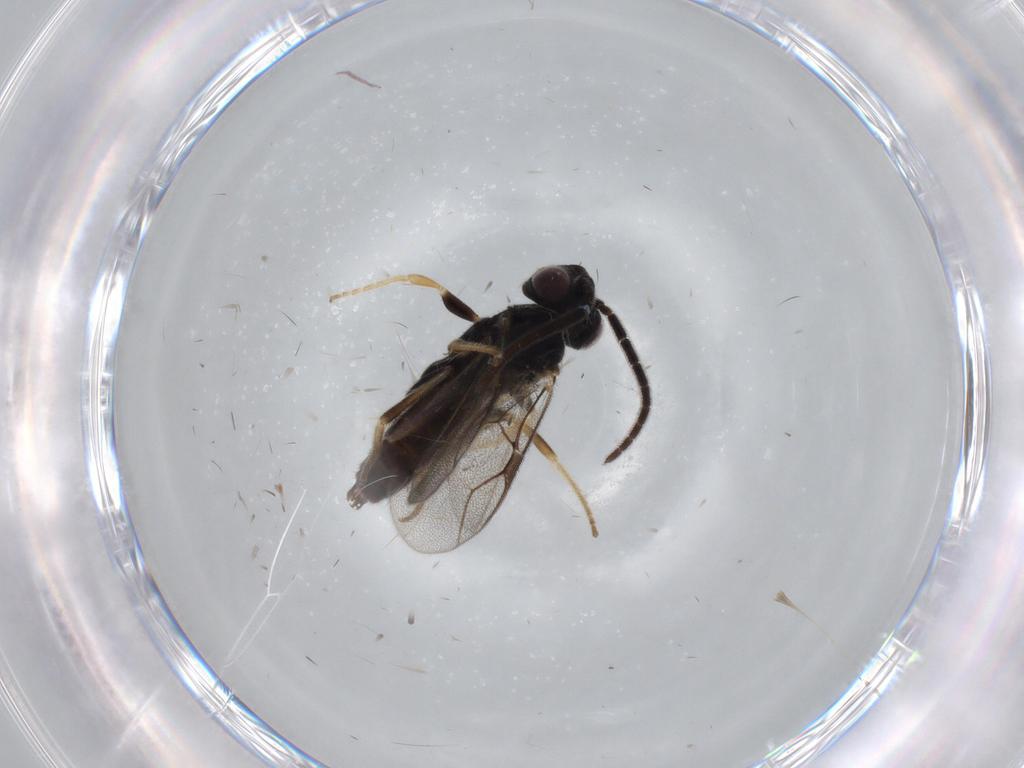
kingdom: Animalia
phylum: Arthropoda
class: Insecta
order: Hymenoptera
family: Dryinidae
